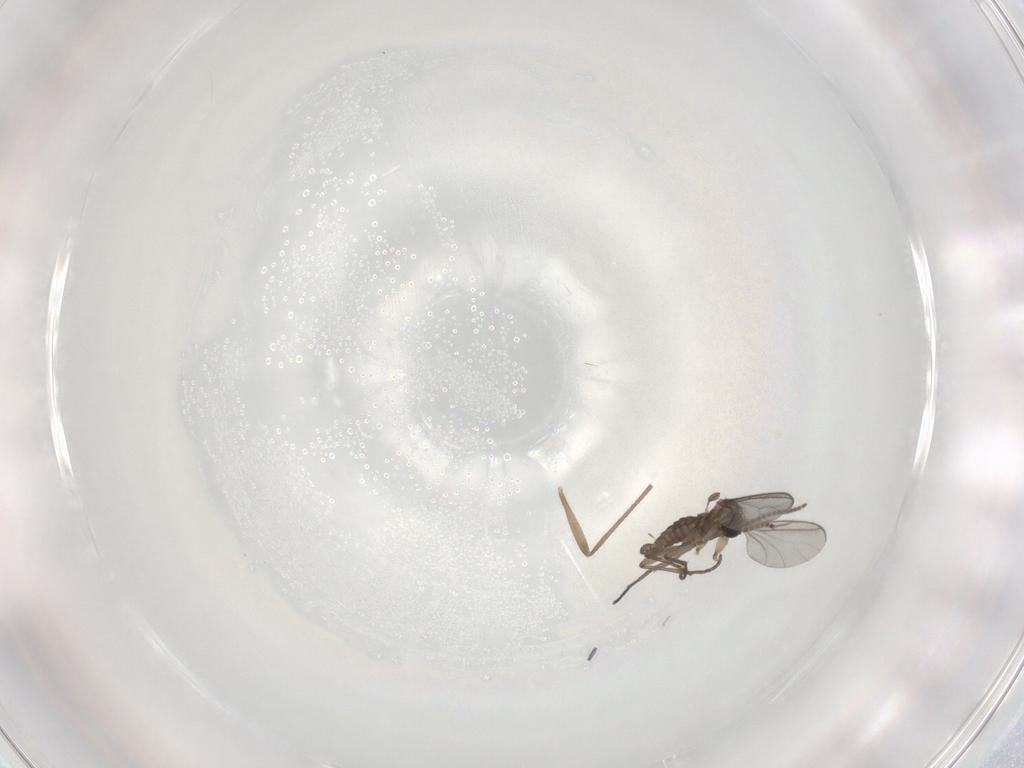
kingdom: Animalia
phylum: Arthropoda
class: Insecta
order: Diptera
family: Sciaridae
